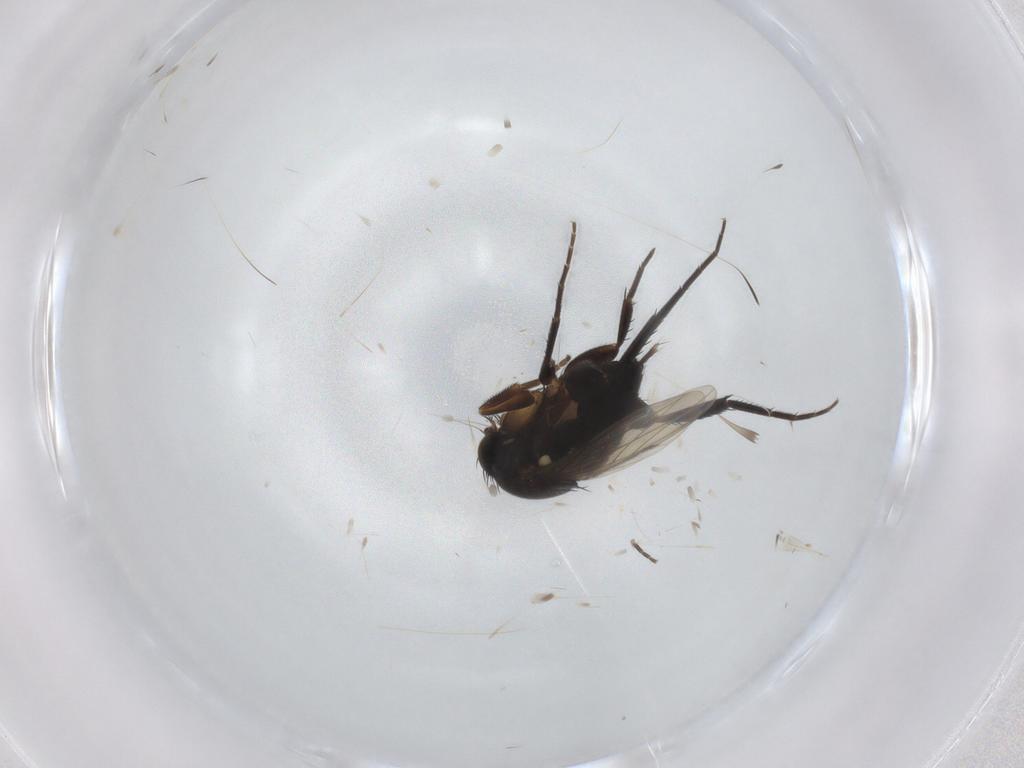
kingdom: Animalia
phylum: Arthropoda
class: Insecta
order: Diptera
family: Phoridae
